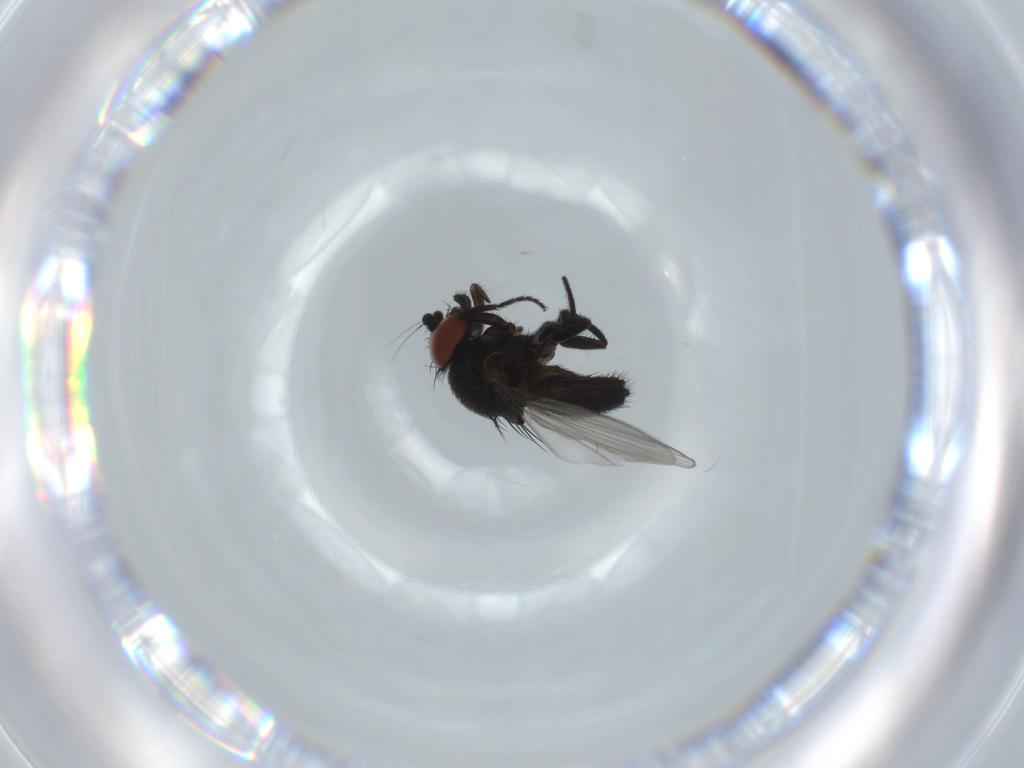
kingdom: Animalia
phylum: Arthropoda
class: Insecta
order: Diptera
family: Milichiidae
